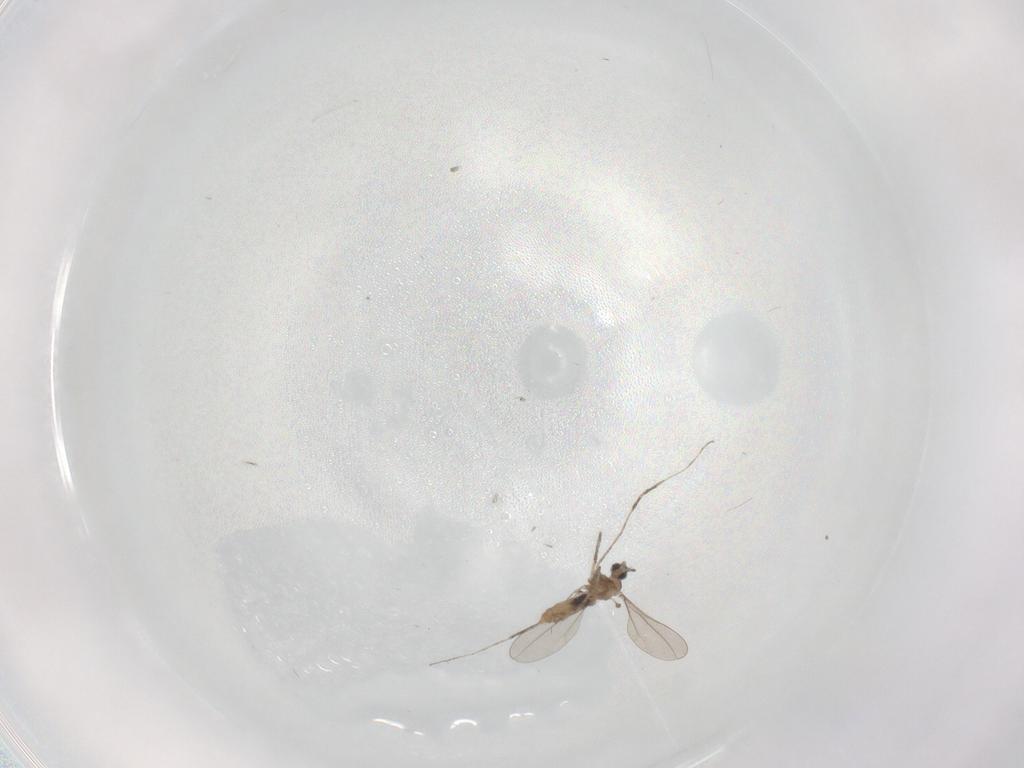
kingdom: Animalia
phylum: Arthropoda
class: Insecta
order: Diptera
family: Corethrellidae
